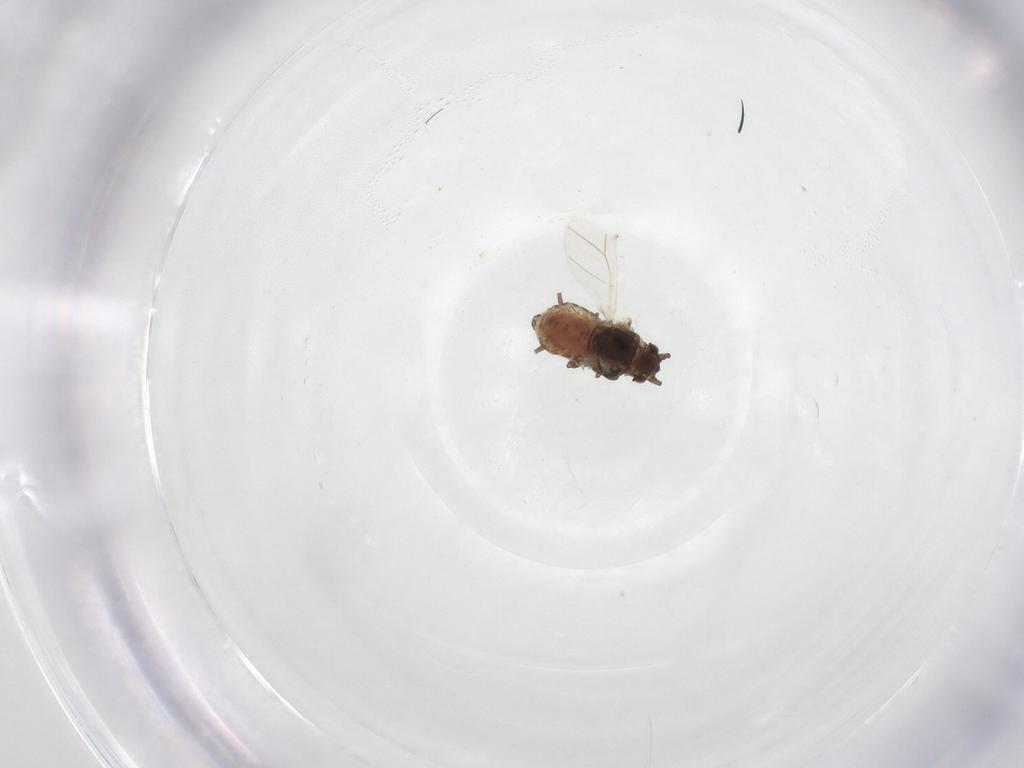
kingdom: Animalia
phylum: Arthropoda
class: Insecta
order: Hemiptera
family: Aphididae
